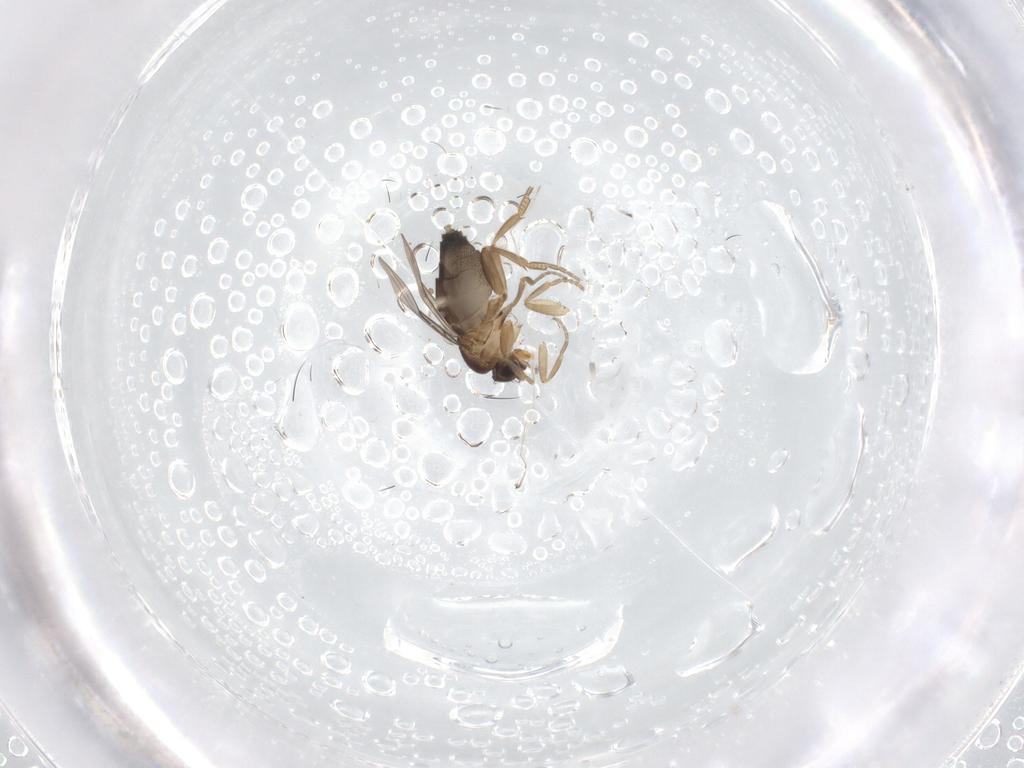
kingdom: Animalia
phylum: Arthropoda
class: Insecta
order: Diptera
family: Phoridae
